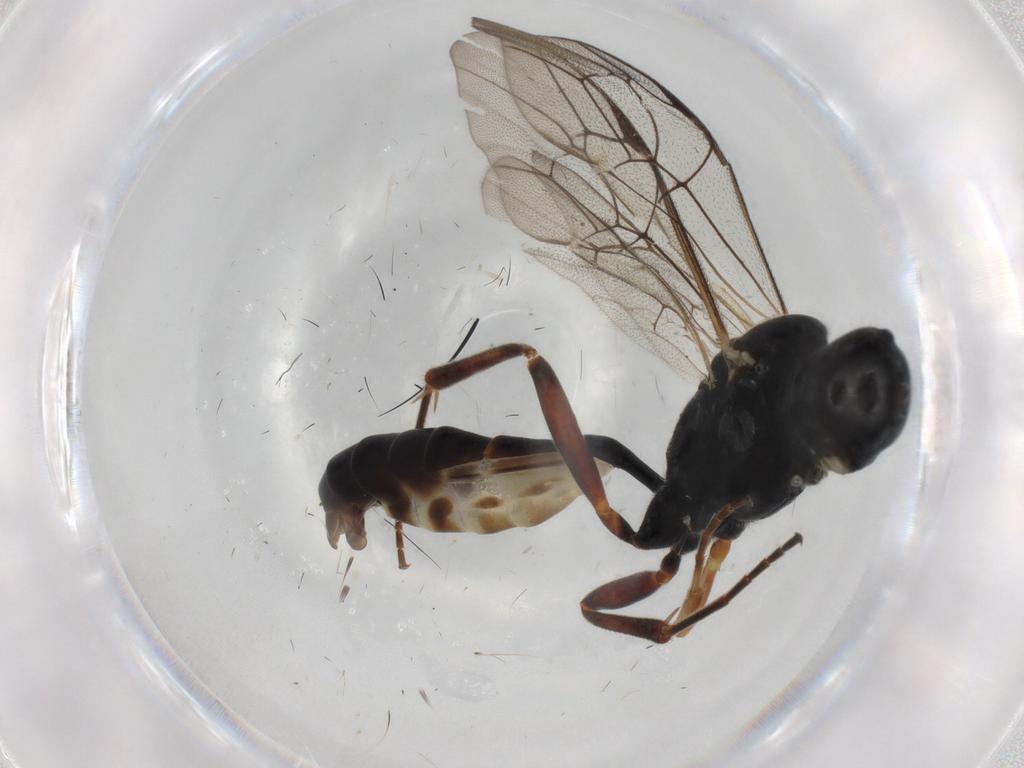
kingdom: Animalia
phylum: Arthropoda
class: Insecta
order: Hymenoptera
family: Ichneumonidae
